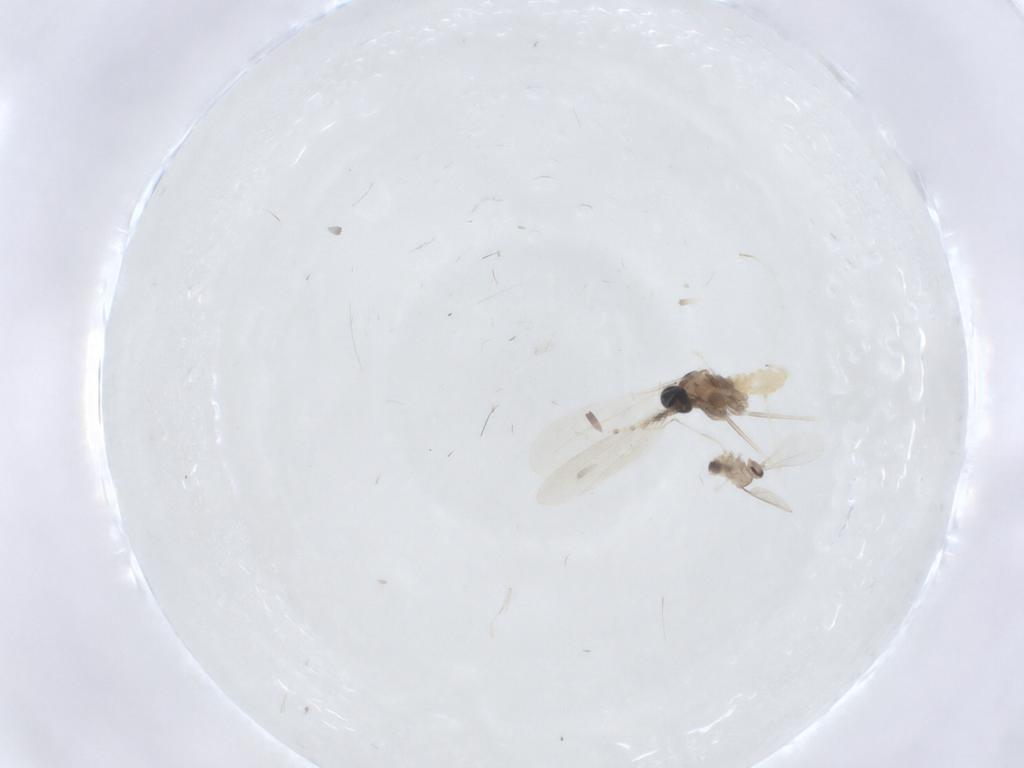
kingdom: Animalia
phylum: Arthropoda
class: Insecta
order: Diptera
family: Cecidomyiidae
